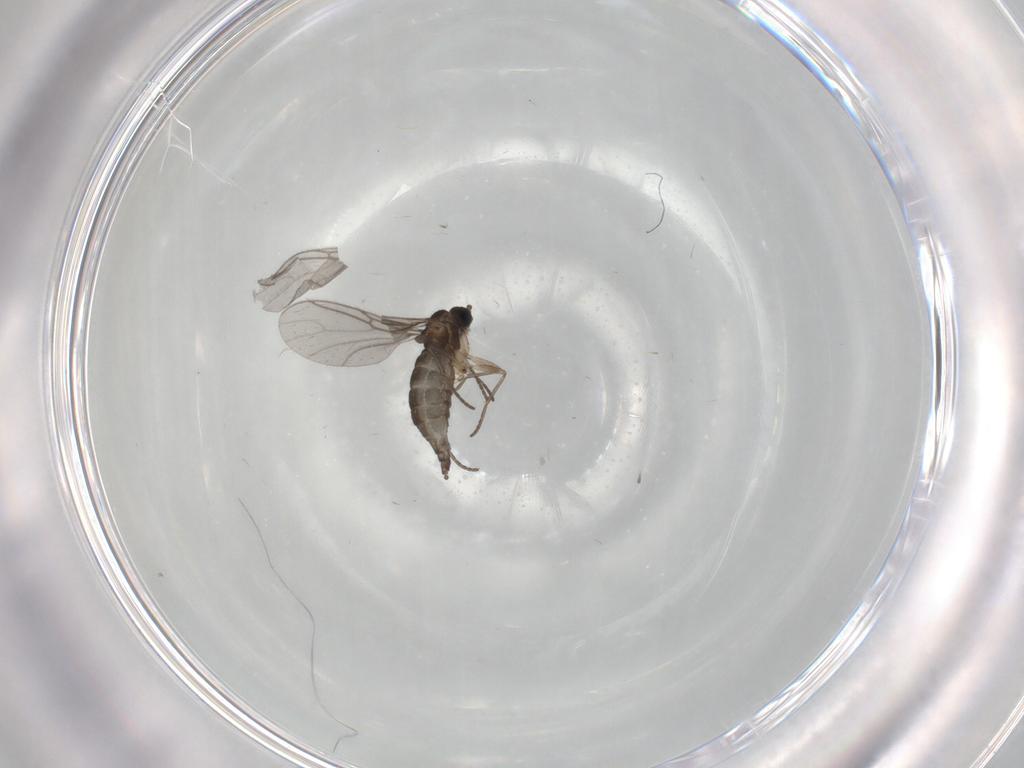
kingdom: Animalia
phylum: Arthropoda
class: Insecta
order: Diptera
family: Sciaridae
